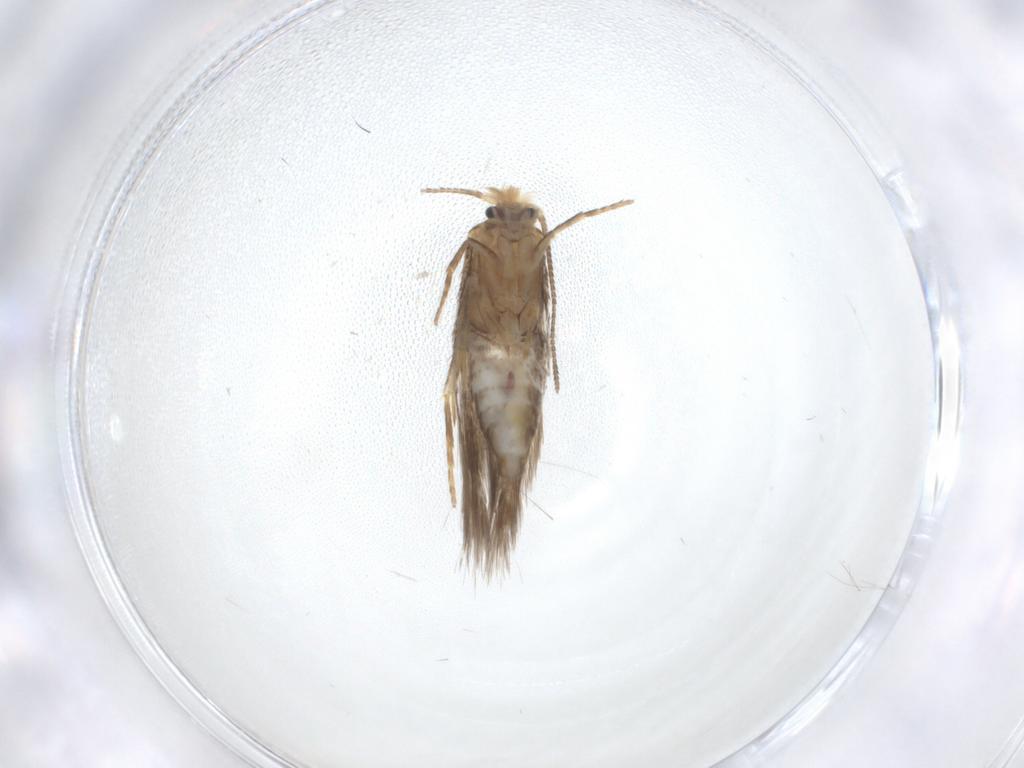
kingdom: Animalia
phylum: Arthropoda
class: Insecta
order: Lepidoptera
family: Nepticulidae
